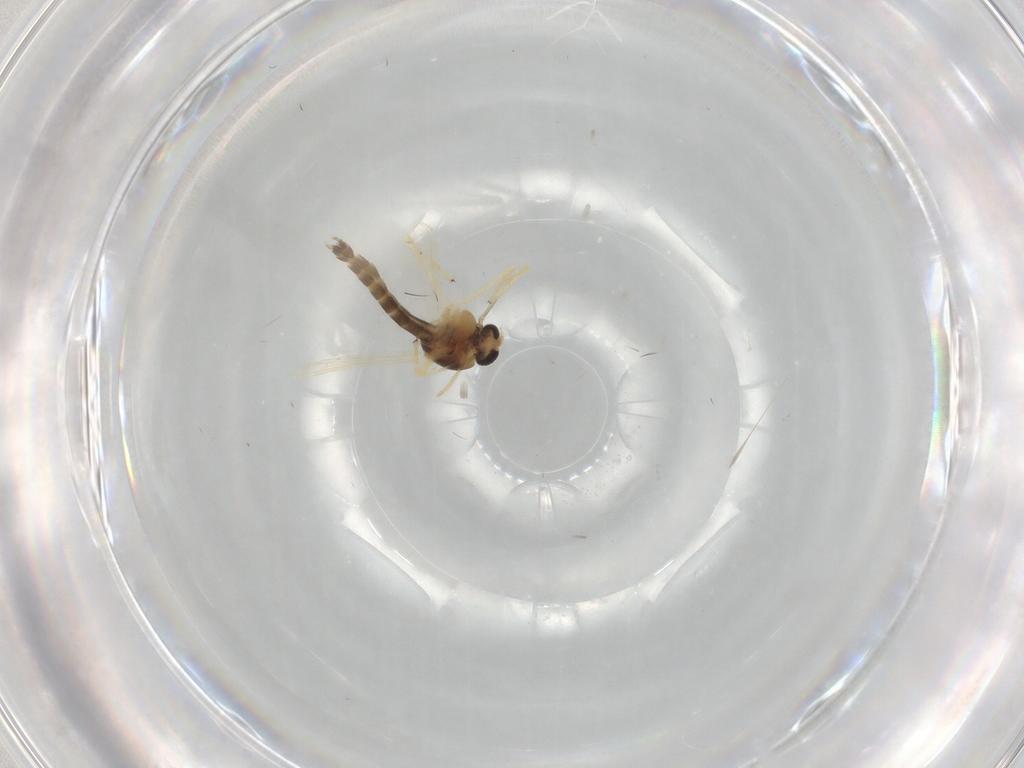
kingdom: Animalia
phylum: Arthropoda
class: Insecta
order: Diptera
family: Chironomidae
